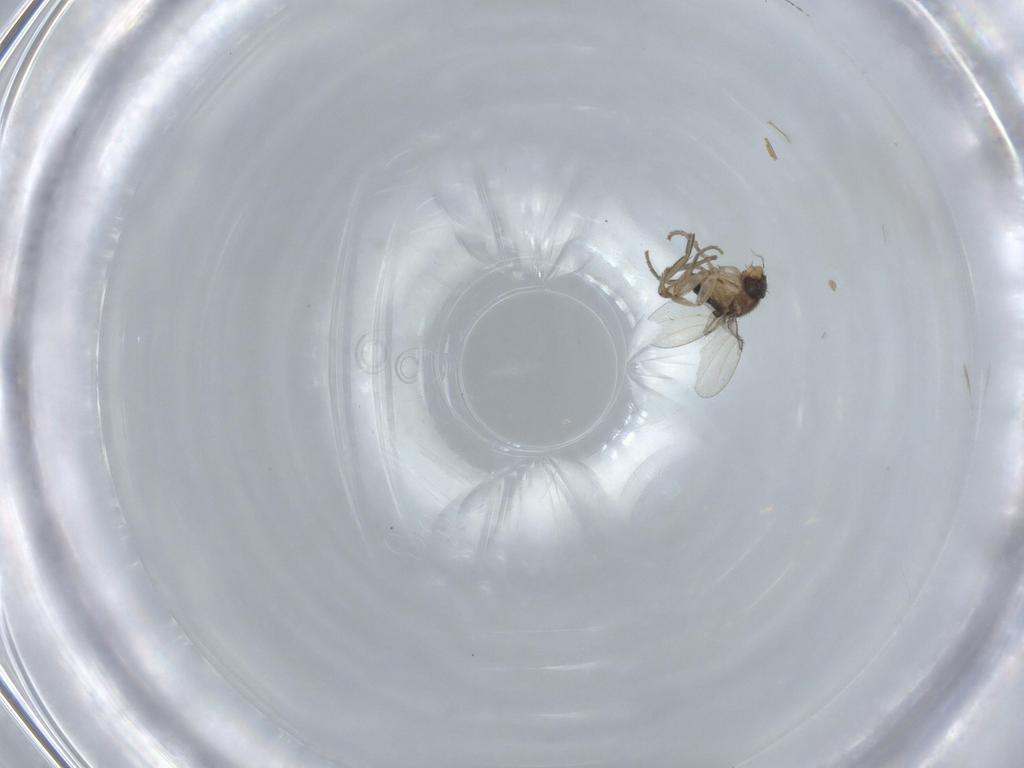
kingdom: Animalia
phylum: Arthropoda
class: Insecta
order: Diptera
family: Phoridae
